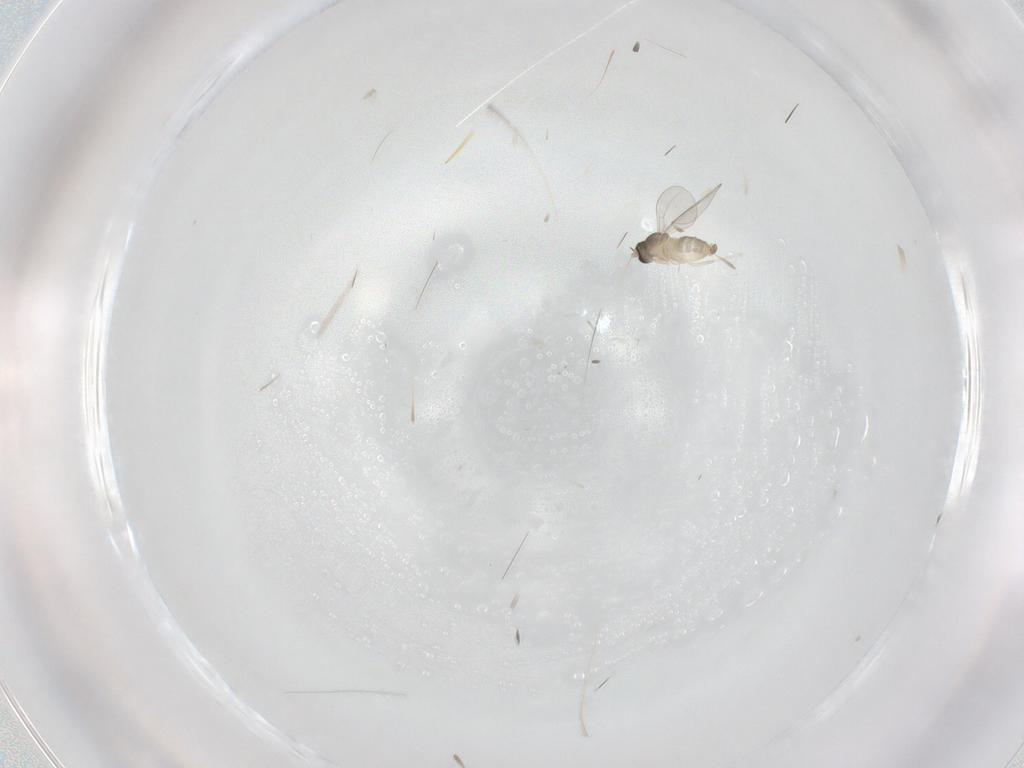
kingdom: Animalia
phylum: Arthropoda
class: Insecta
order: Diptera
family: Cecidomyiidae
